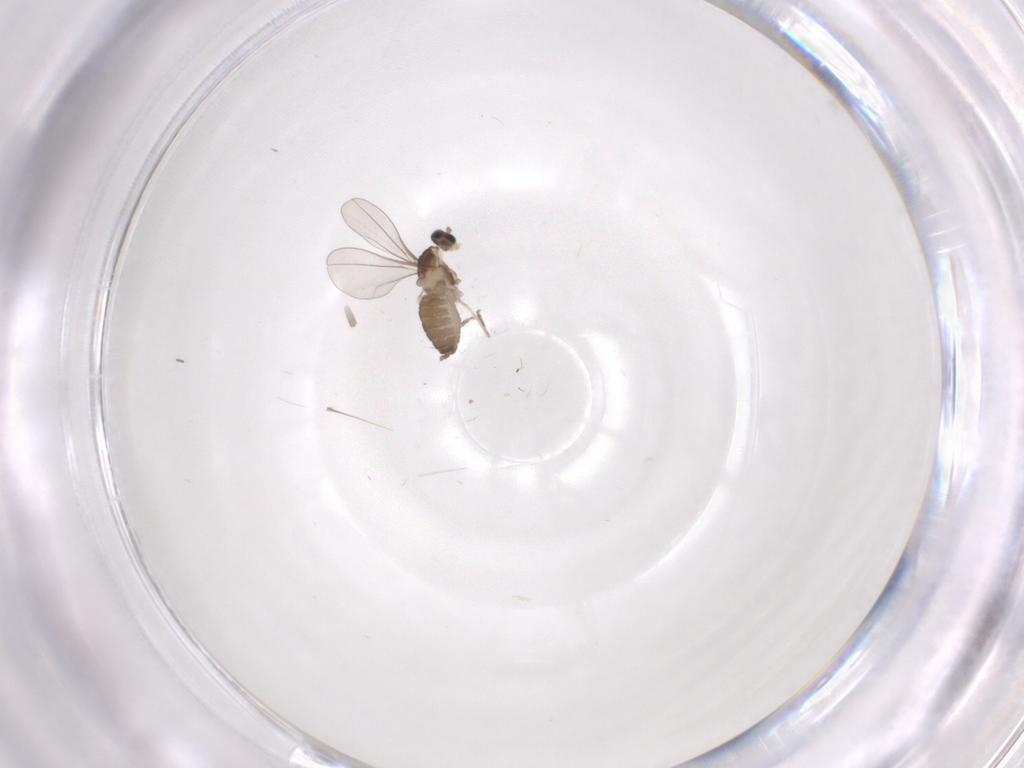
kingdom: Animalia
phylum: Arthropoda
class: Insecta
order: Diptera
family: Cecidomyiidae
